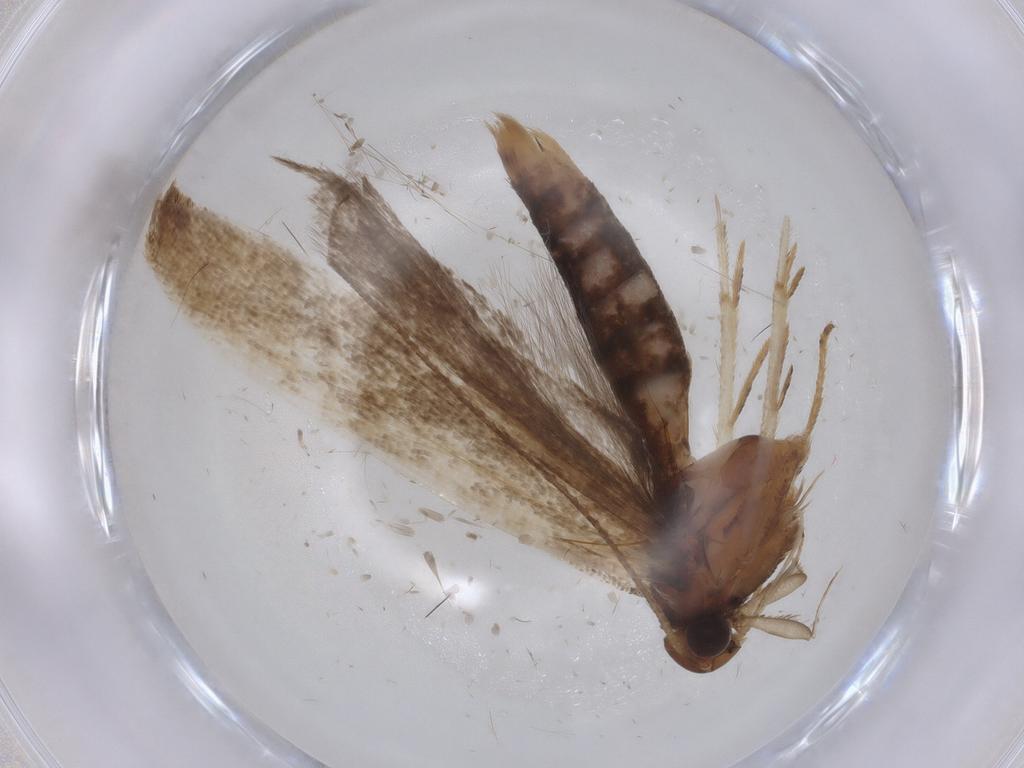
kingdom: Animalia
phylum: Arthropoda
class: Insecta
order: Lepidoptera
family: Gelechiidae
